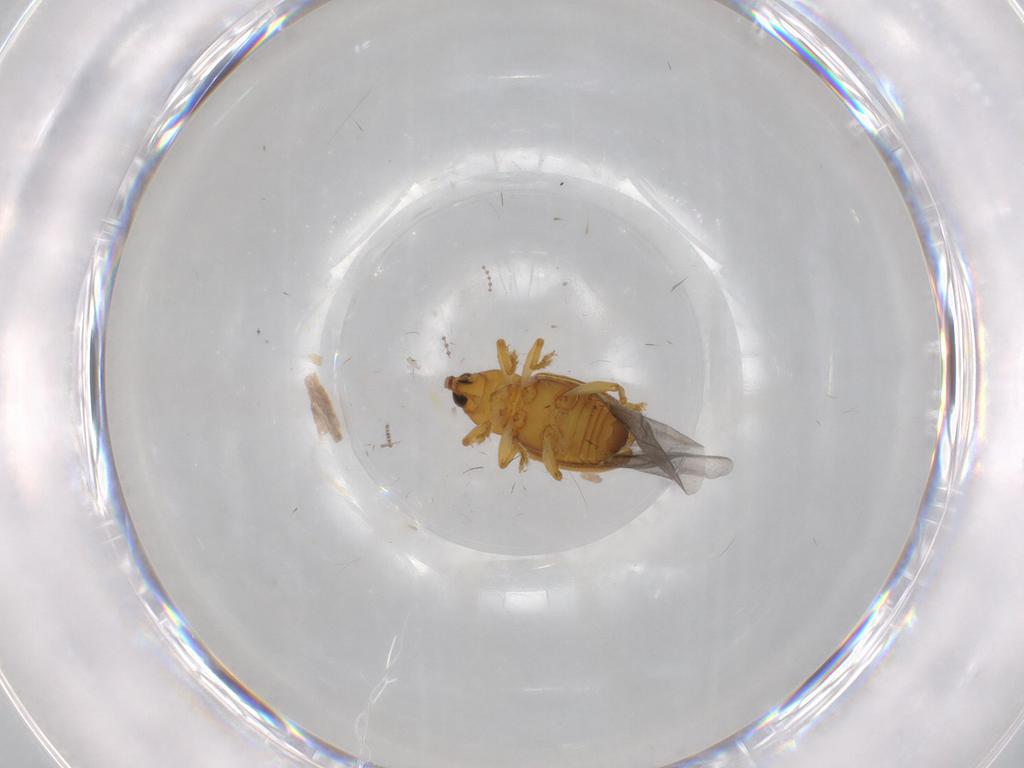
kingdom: Animalia
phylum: Arthropoda
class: Insecta
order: Coleoptera
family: Curculionidae
